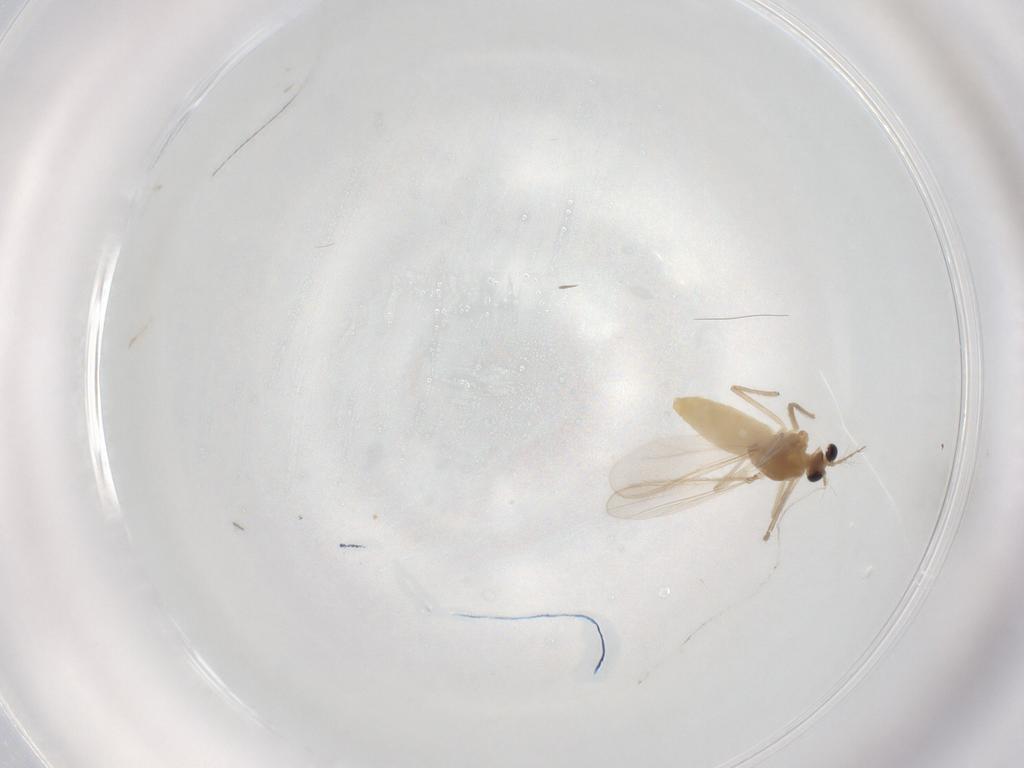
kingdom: Animalia
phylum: Arthropoda
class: Insecta
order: Diptera
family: Chironomidae
